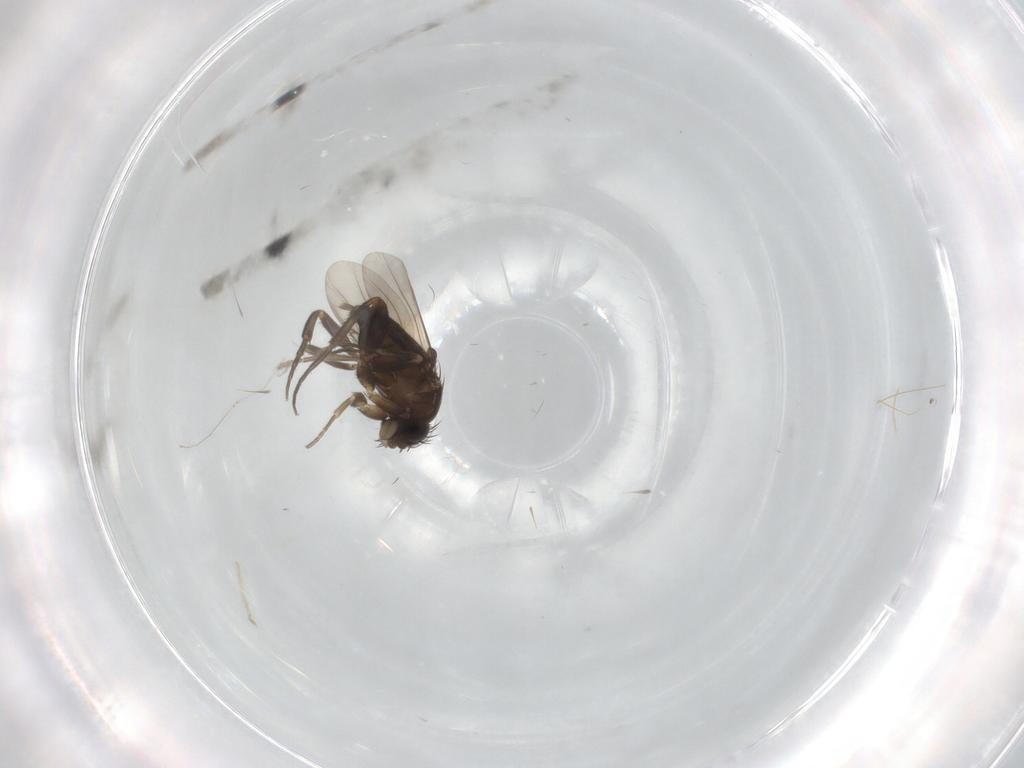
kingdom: Animalia
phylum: Arthropoda
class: Insecta
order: Diptera
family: Phoridae
